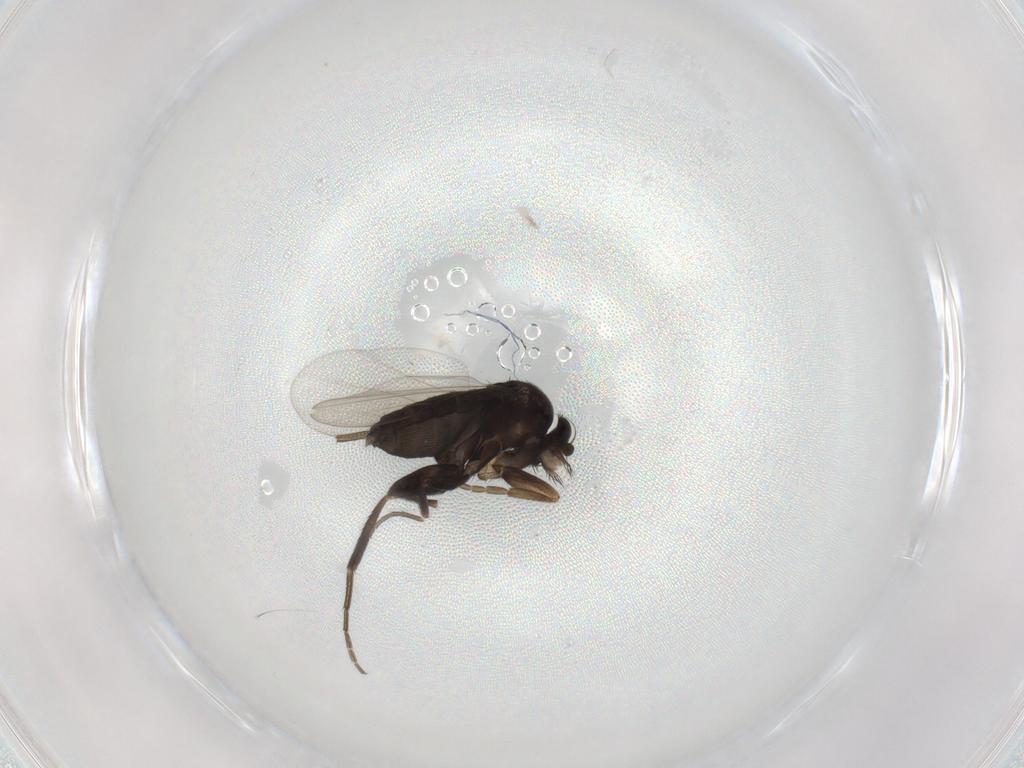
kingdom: Animalia
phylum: Arthropoda
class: Insecta
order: Diptera
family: Phoridae
